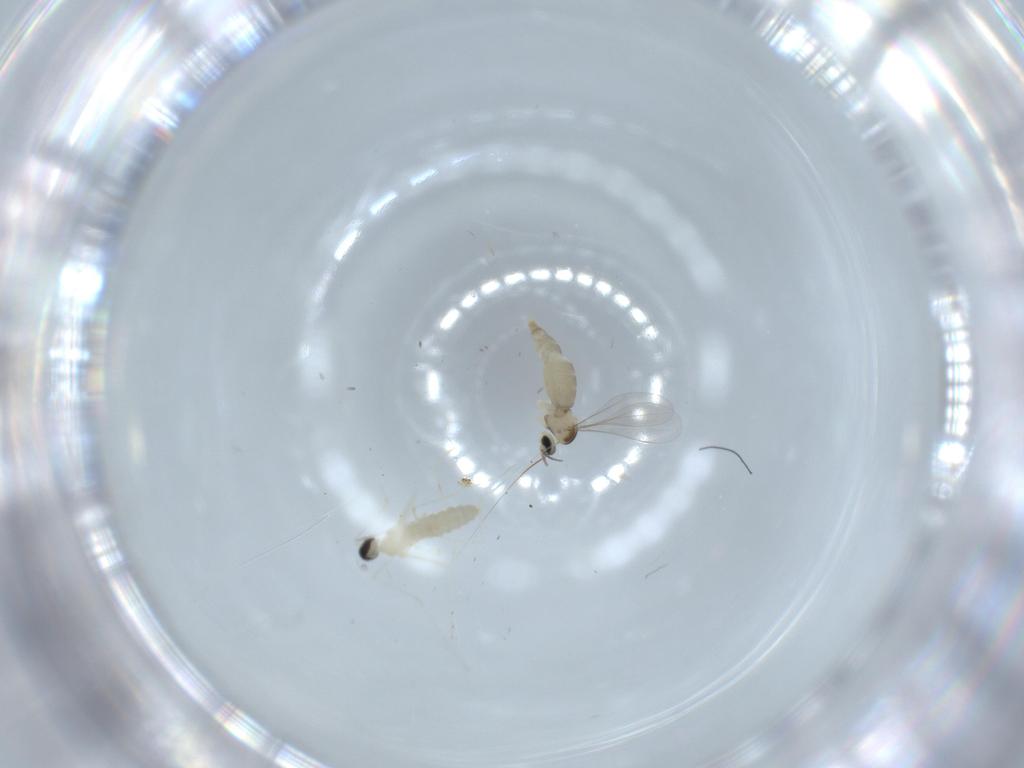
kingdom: Animalia
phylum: Arthropoda
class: Insecta
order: Diptera
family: Cecidomyiidae
